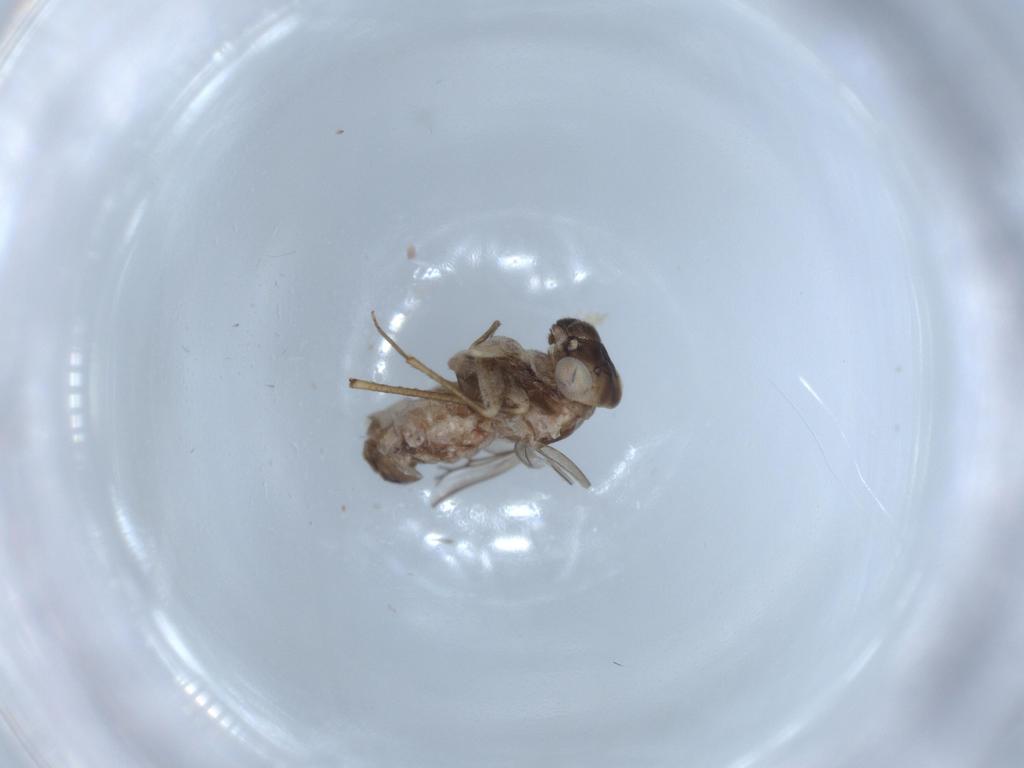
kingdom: Animalia
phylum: Arthropoda
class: Insecta
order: Psocodea
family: Lepidopsocidae
